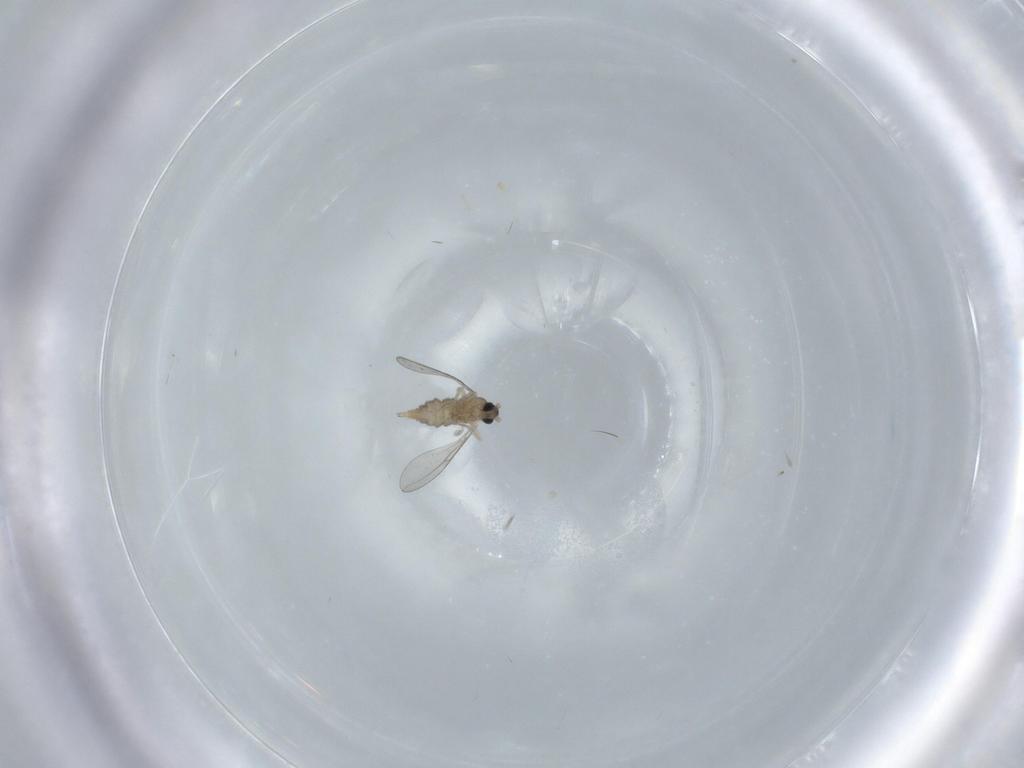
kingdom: Animalia
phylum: Arthropoda
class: Insecta
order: Diptera
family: Cecidomyiidae
